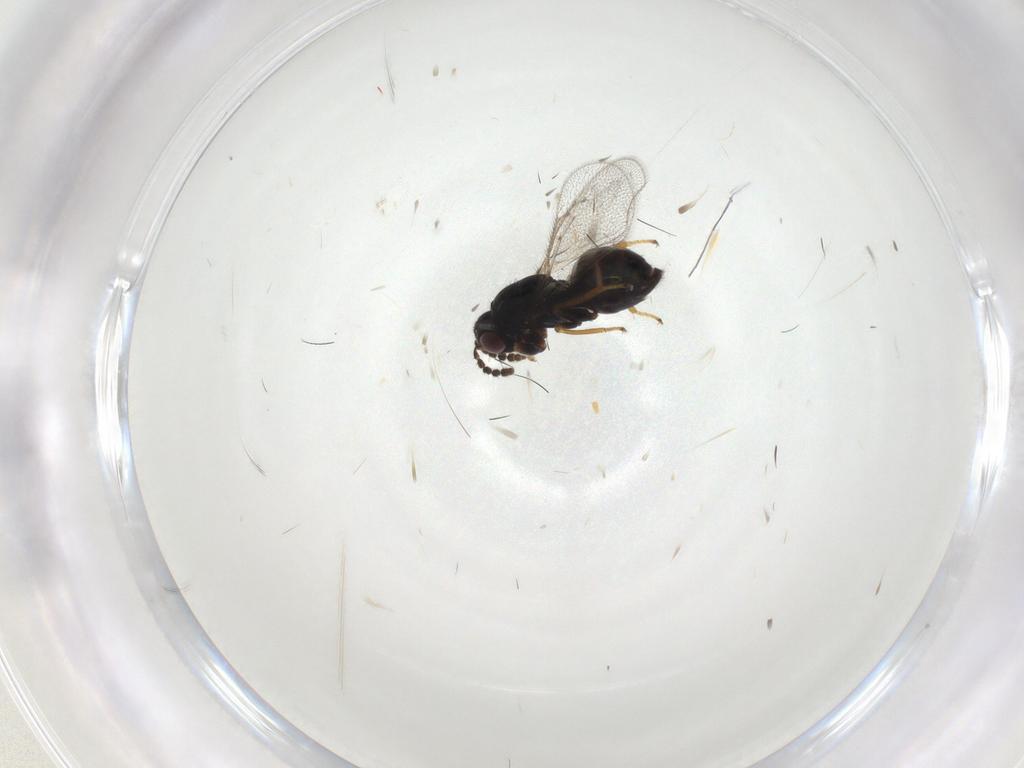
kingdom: Animalia
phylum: Arthropoda
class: Insecta
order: Hymenoptera
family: Eulophidae
